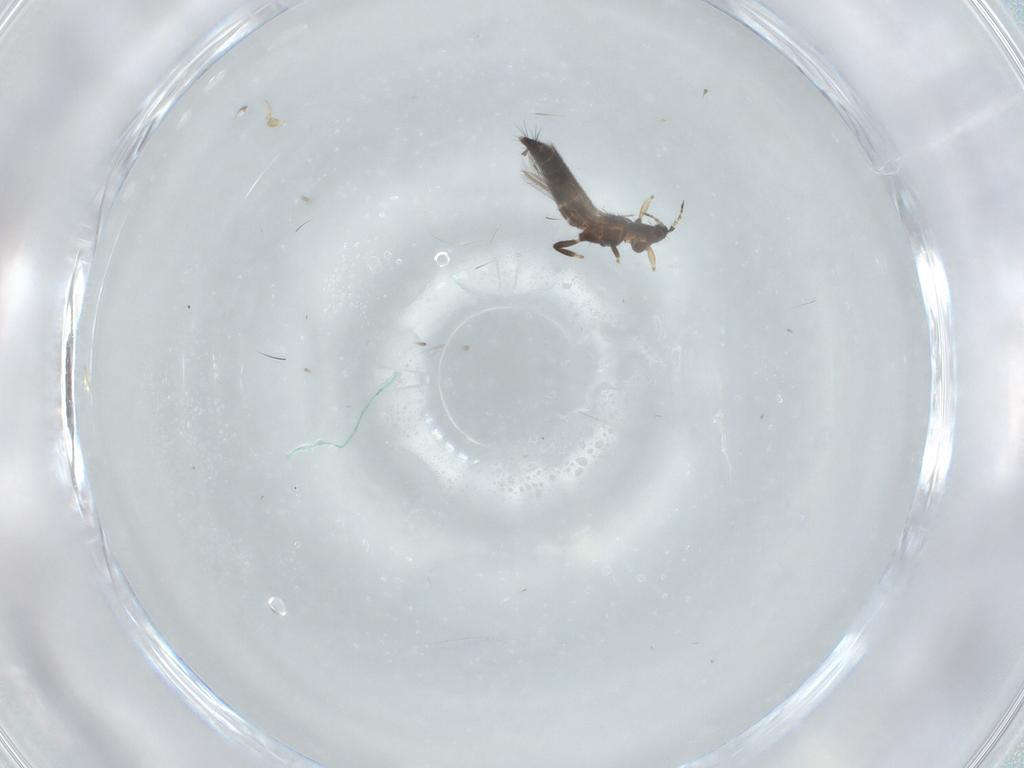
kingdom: Animalia
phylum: Arthropoda
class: Insecta
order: Thysanoptera
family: Thripidae
